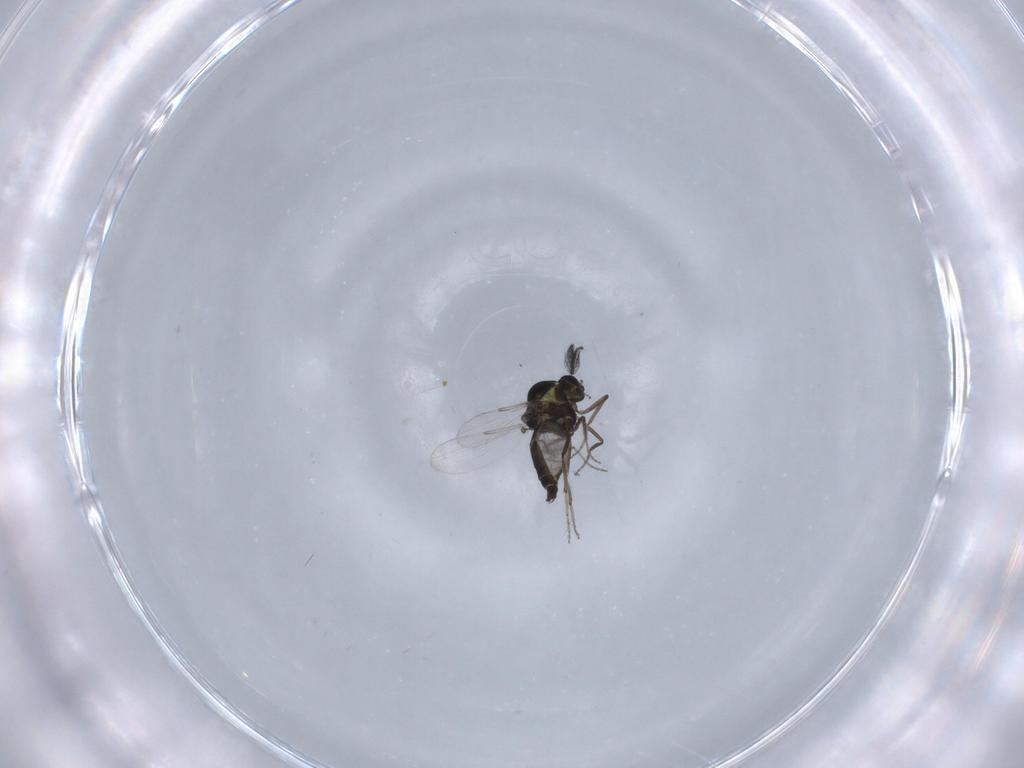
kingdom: Animalia
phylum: Arthropoda
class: Insecta
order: Diptera
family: Ceratopogonidae
